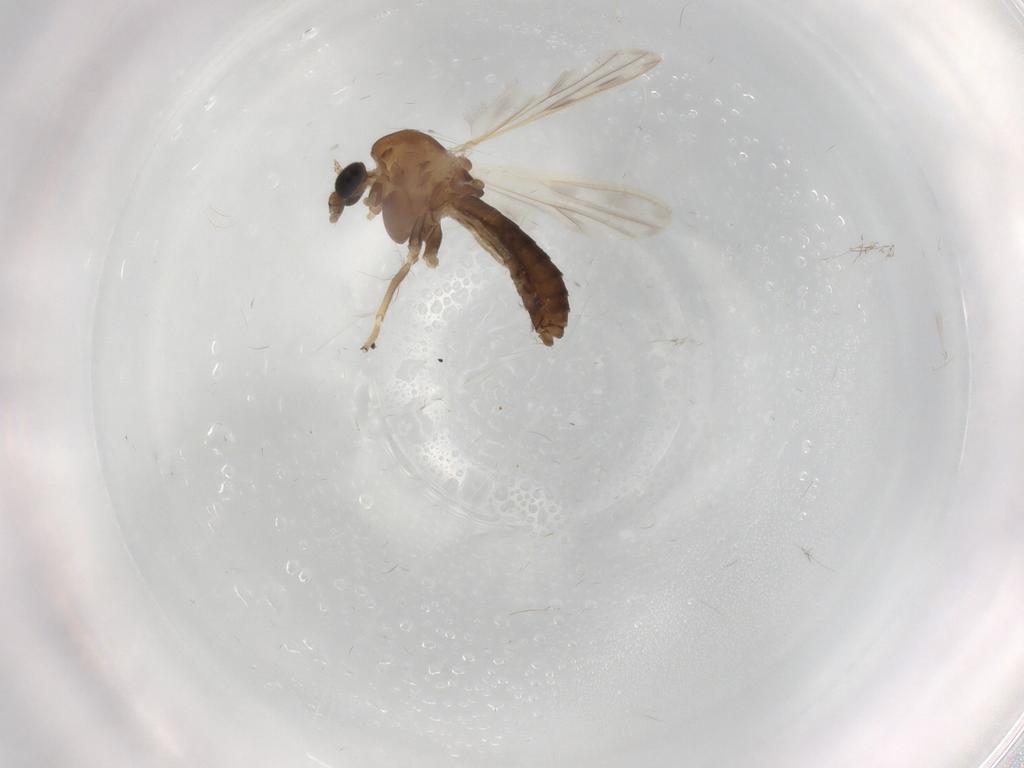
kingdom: Animalia
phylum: Arthropoda
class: Insecta
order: Diptera
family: Chironomidae
